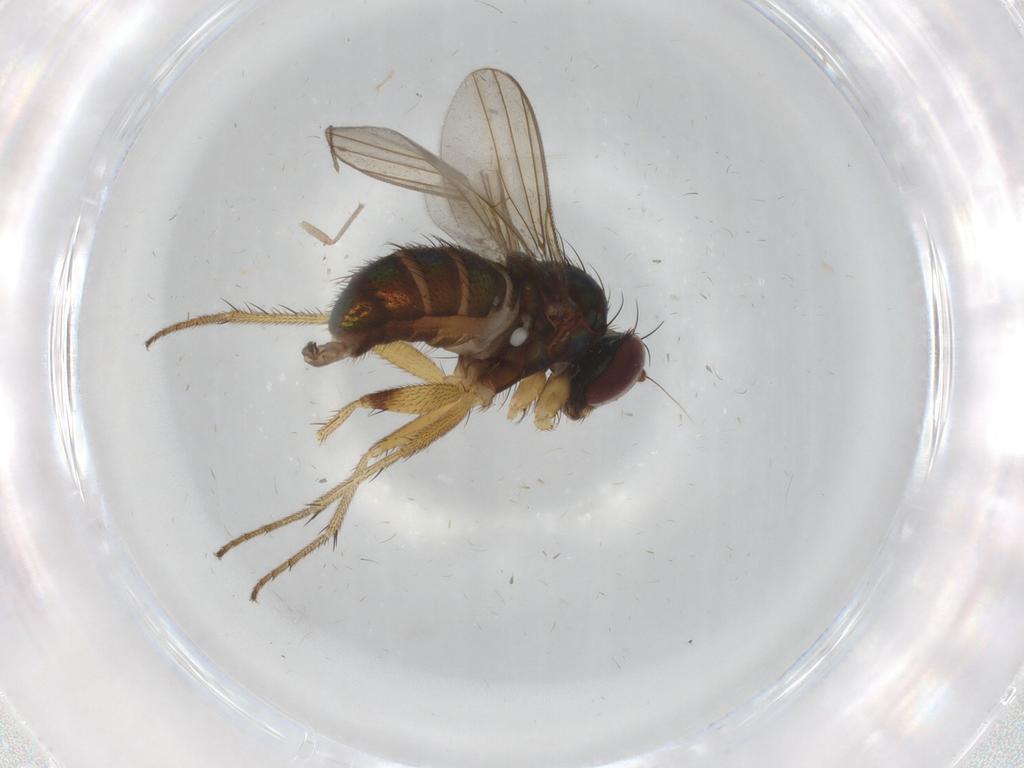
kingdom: Animalia
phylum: Arthropoda
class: Insecta
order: Diptera
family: Dolichopodidae
